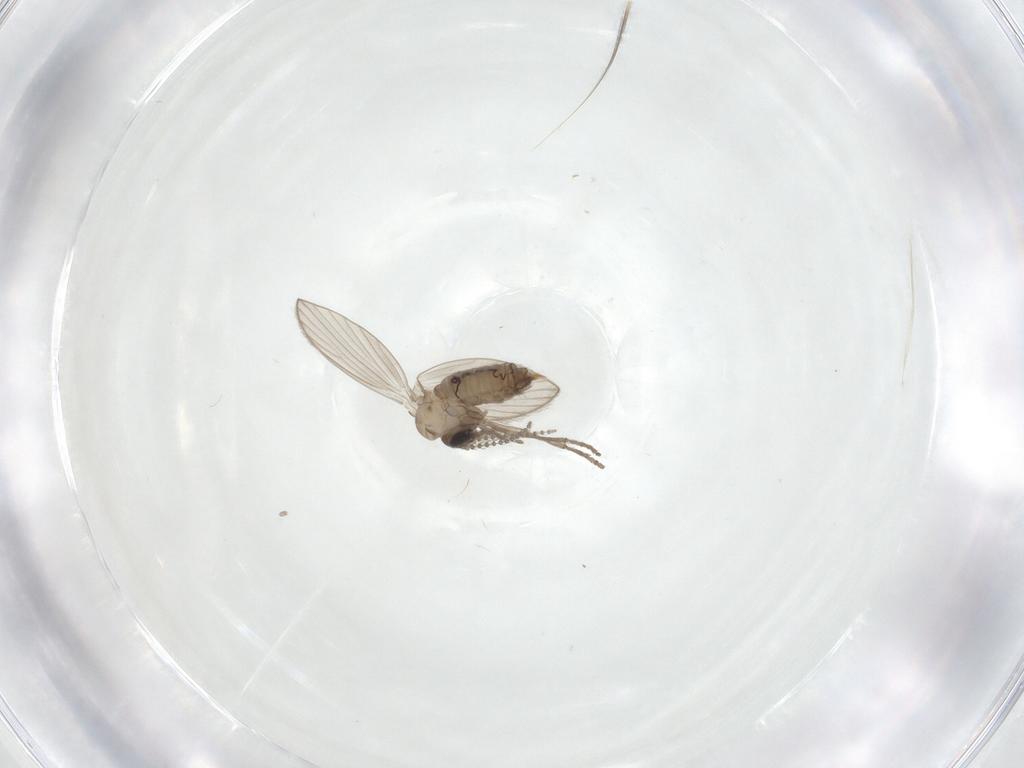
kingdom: Animalia
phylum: Arthropoda
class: Insecta
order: Diptera
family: Psychodidae
